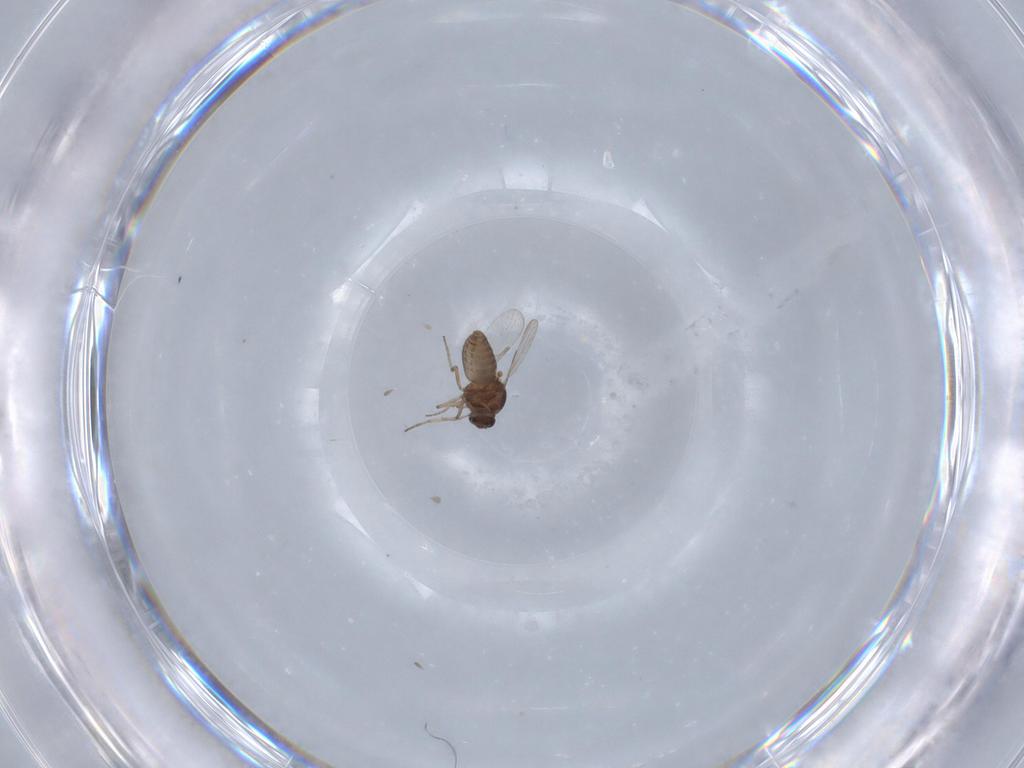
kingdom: Animalia
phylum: Arthropoda
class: Insecta
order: Diptera
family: Ceratopogonidae
